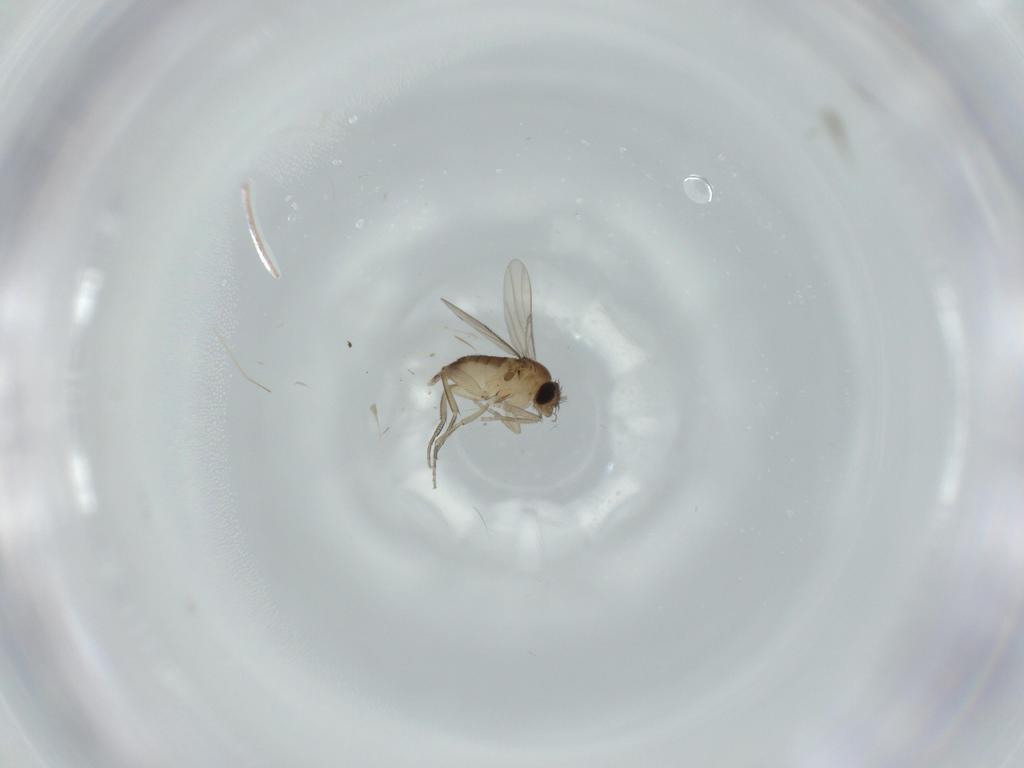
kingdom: Animalia
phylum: Arthropoda
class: Insecta
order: Diptera
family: Phoridae
